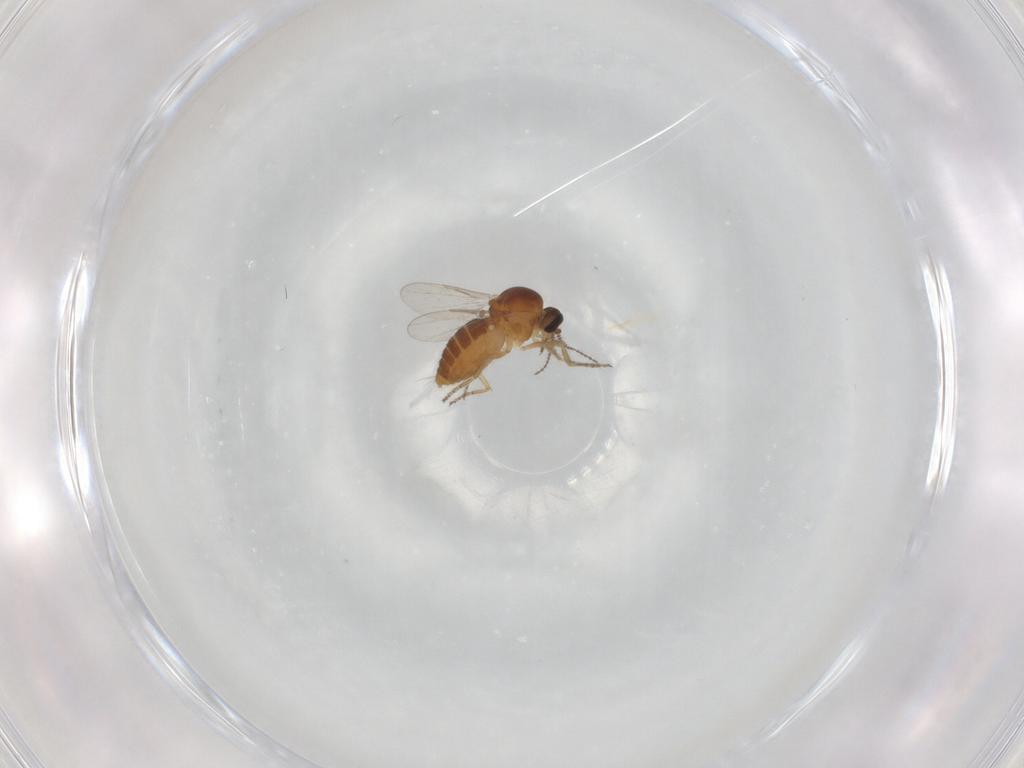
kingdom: Animalia
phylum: Arthropoda
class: Insecta
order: Diptera
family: Ceratopogonidae
